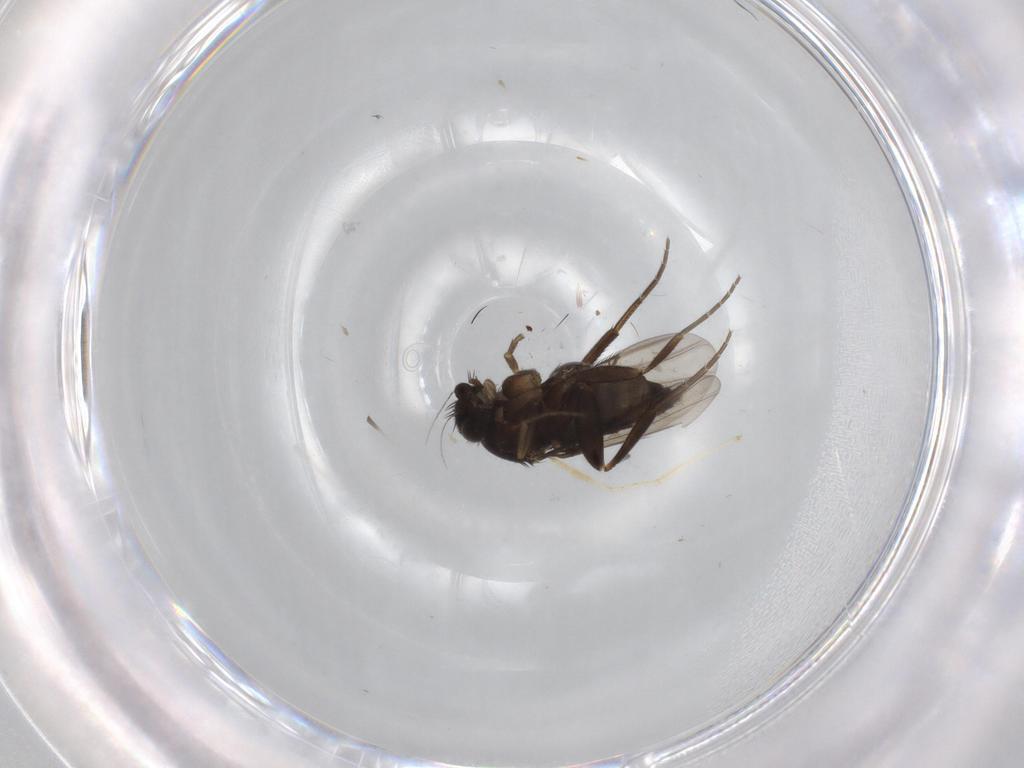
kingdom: Animalia
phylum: Arthropoda
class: Insecta
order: Diptera
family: Phoridae
